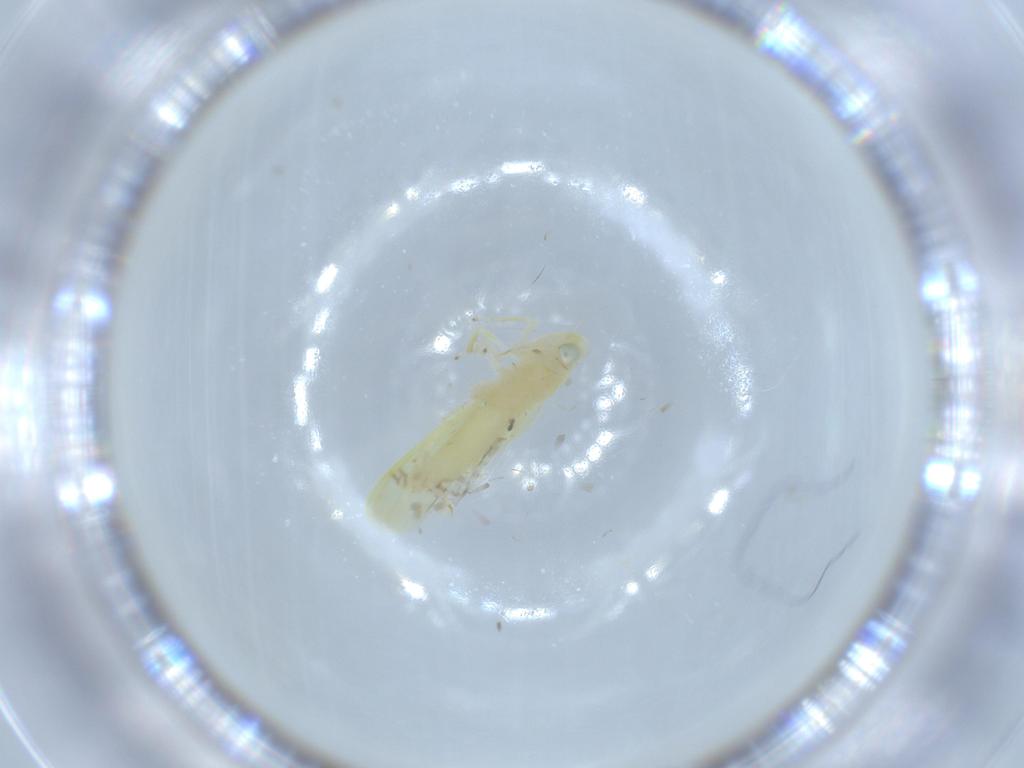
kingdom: Animalia
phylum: Arthropoda
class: Insecta
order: Hemiptera
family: Cicadellidae
